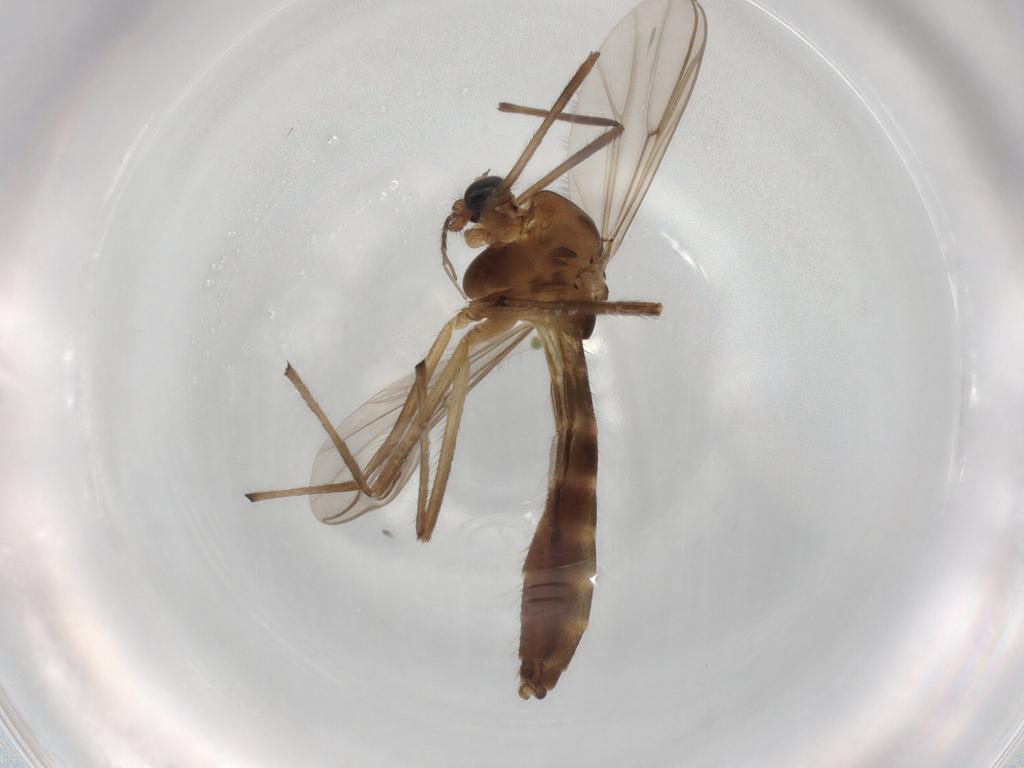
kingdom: Animalia
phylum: Arthropoda
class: Insecta
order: Diptera
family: Chironomidae
